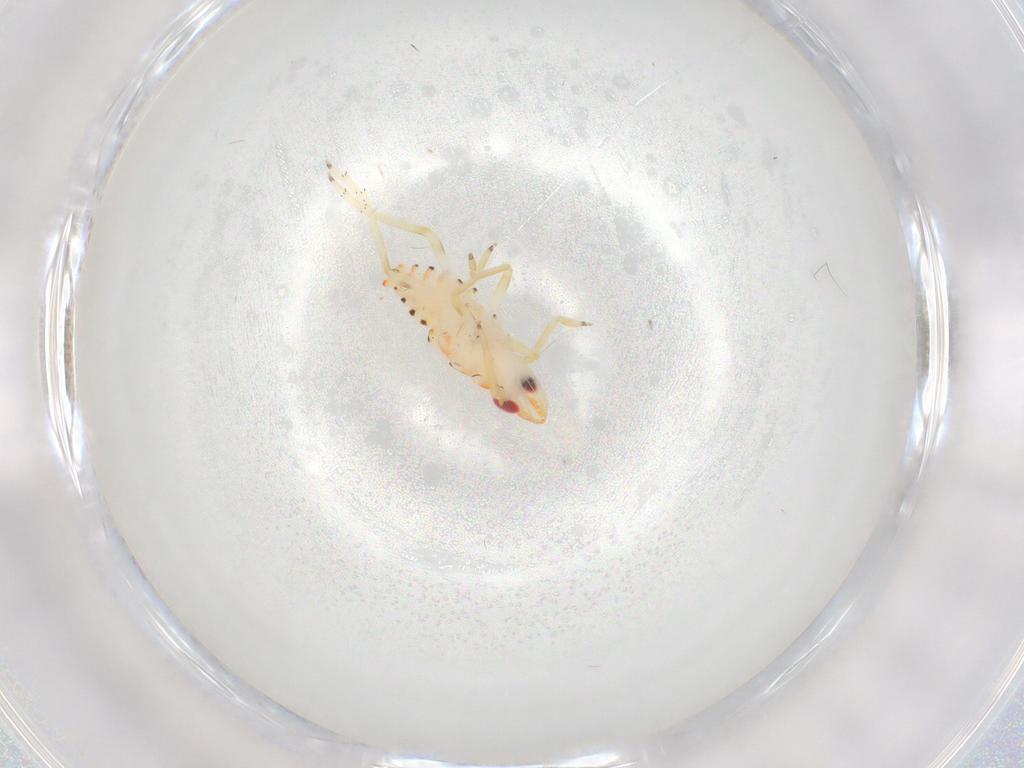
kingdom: Animalia
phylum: Arthropoda
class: Insecta
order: Hemiptera
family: Tropiduchidae
